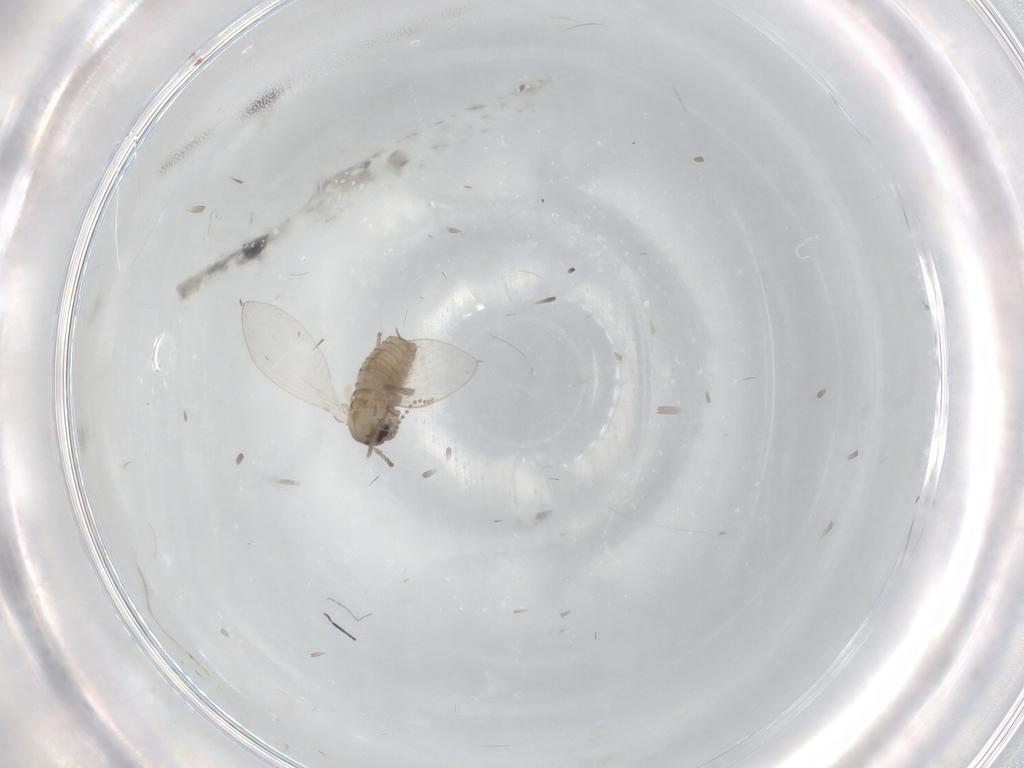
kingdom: Animalia
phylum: Arthropoda
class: Insecta
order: Diptera
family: Psychodidae
